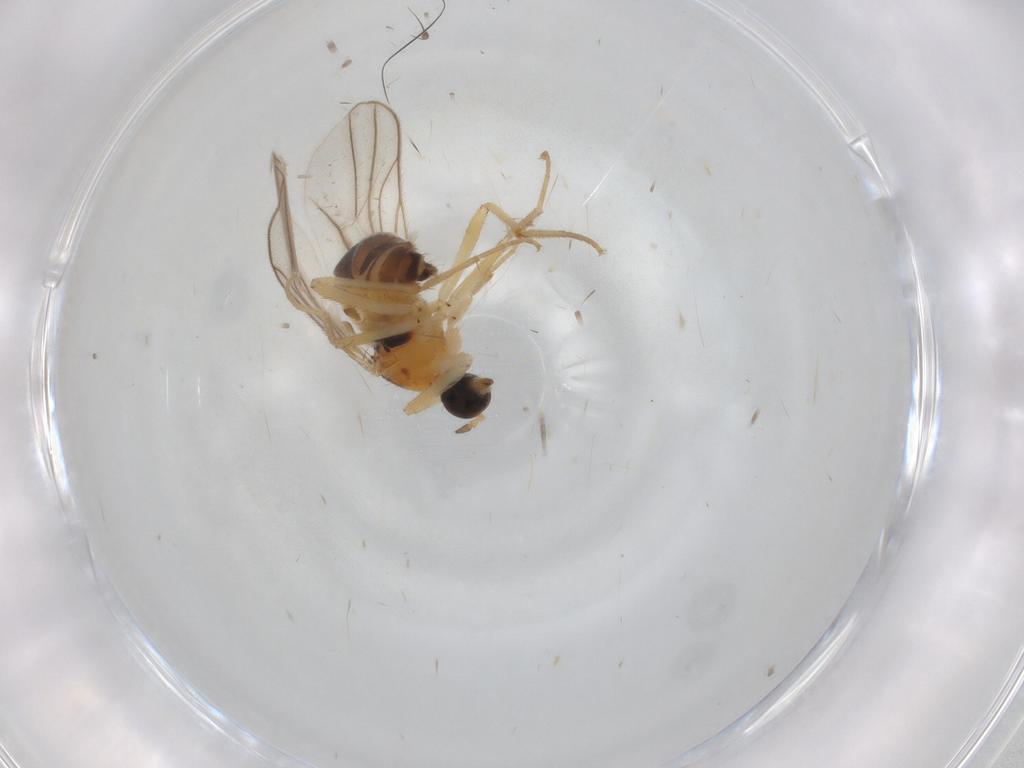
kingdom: Animalia
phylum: Arthropoda
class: Insecta
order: Diptera
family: Hybotidae
